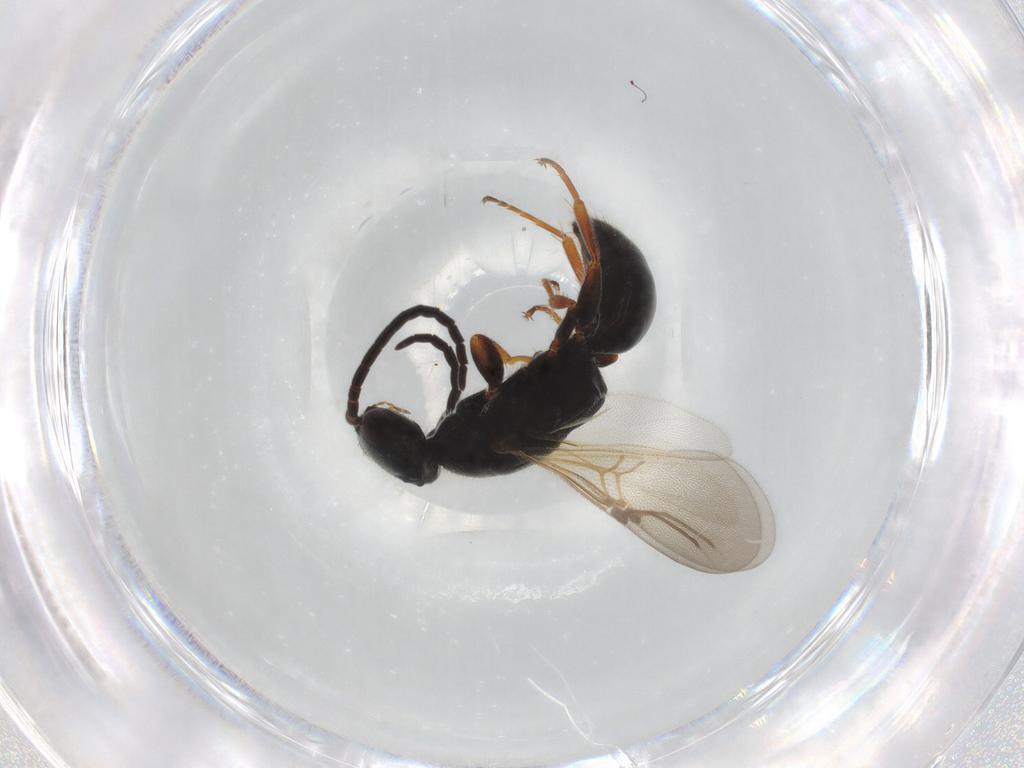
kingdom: Animalia
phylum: Arthropoda
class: Insecta
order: Hymenoptera
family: Bethylidae
